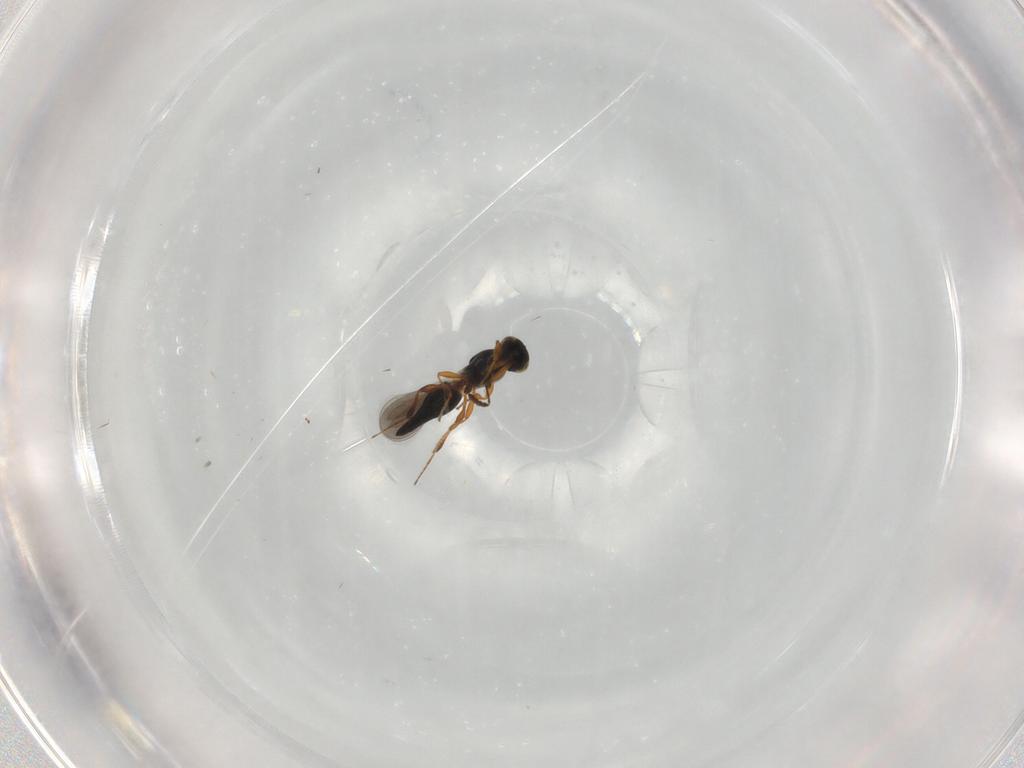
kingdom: Animalia
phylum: Arthropoda
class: Insecta
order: Hymenoptera
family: Platygastridae
